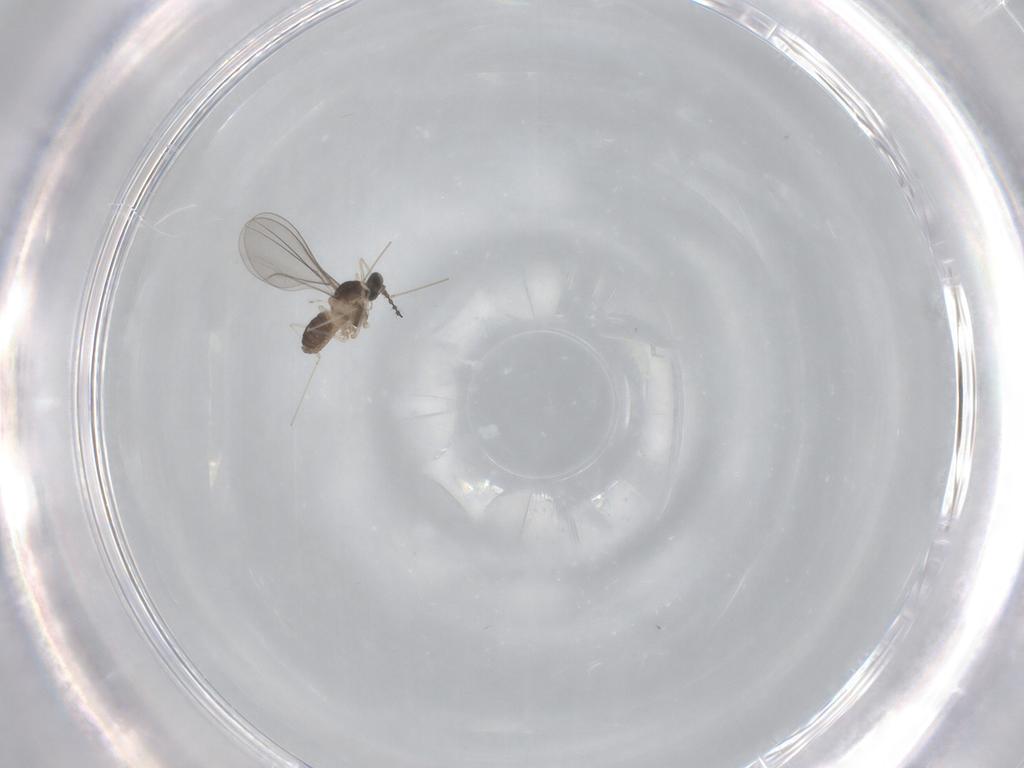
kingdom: Animalia
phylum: Arthropoda
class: Insecta
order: Diptera
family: Cecidomyiidae
